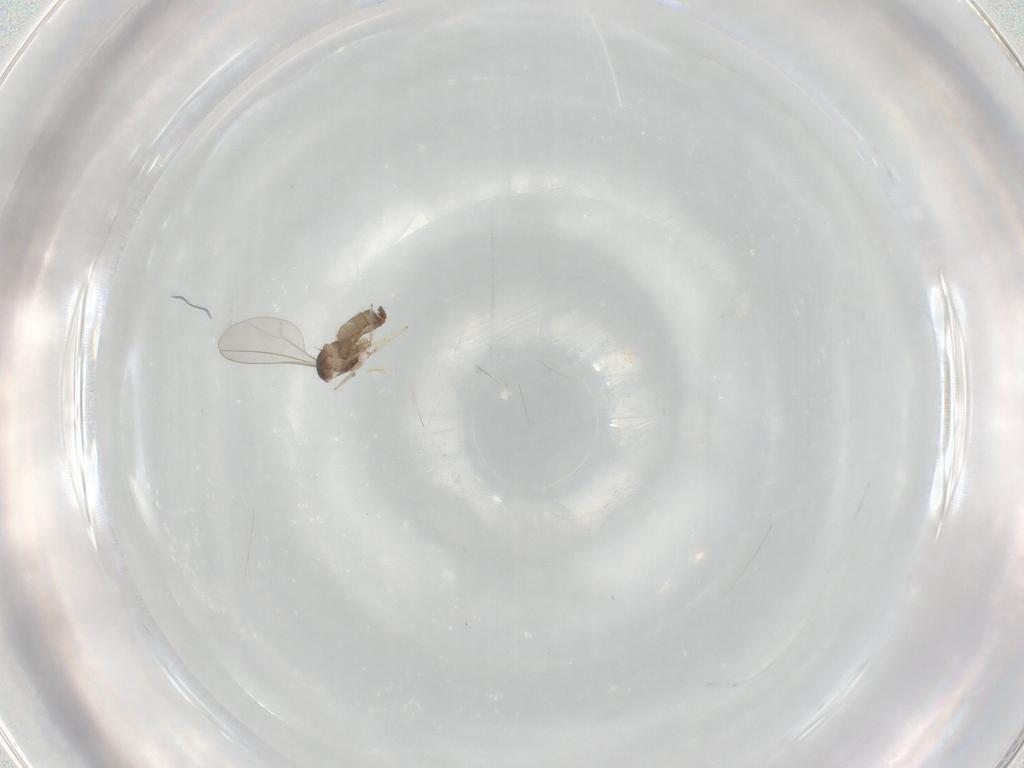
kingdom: Animalia
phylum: Arthropoda
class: Insecta
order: Diptera
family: Cecidomyiidae
